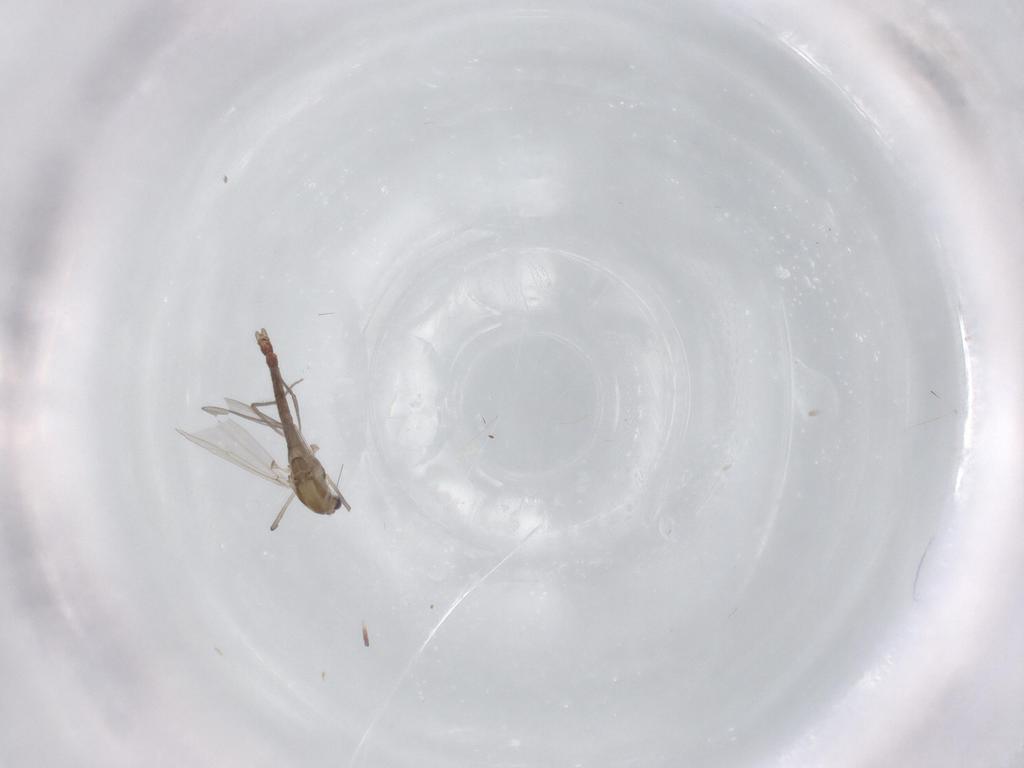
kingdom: Animalia
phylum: Arthropoda
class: Insecta
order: Diptera
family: Chironomidae
